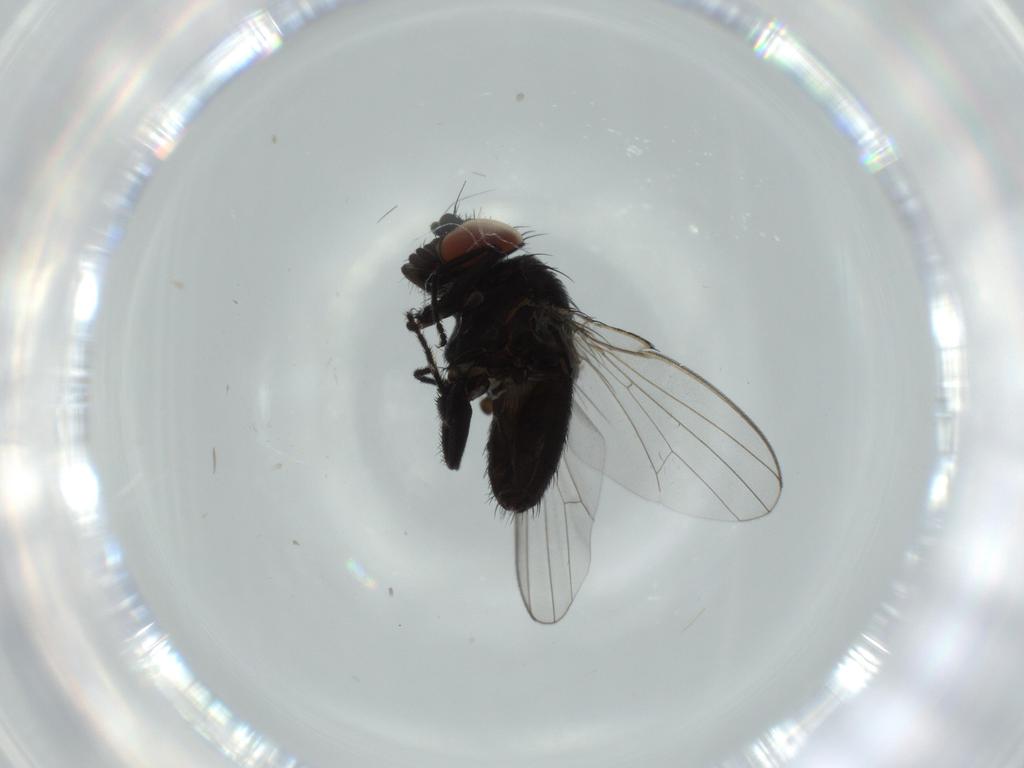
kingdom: Animalia
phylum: Arthropoda
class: Insecta
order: Diptera
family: Milichiidae
